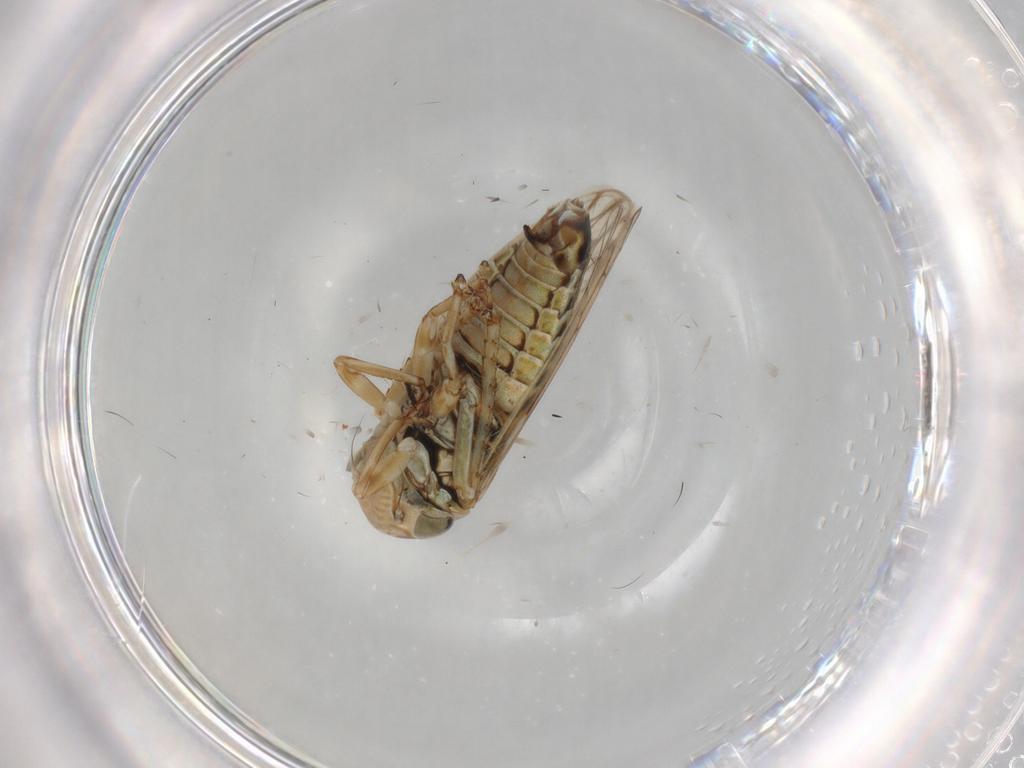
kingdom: Animalia
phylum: Arthropoda
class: Insecta
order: Hemiptera
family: Cicadellidae
